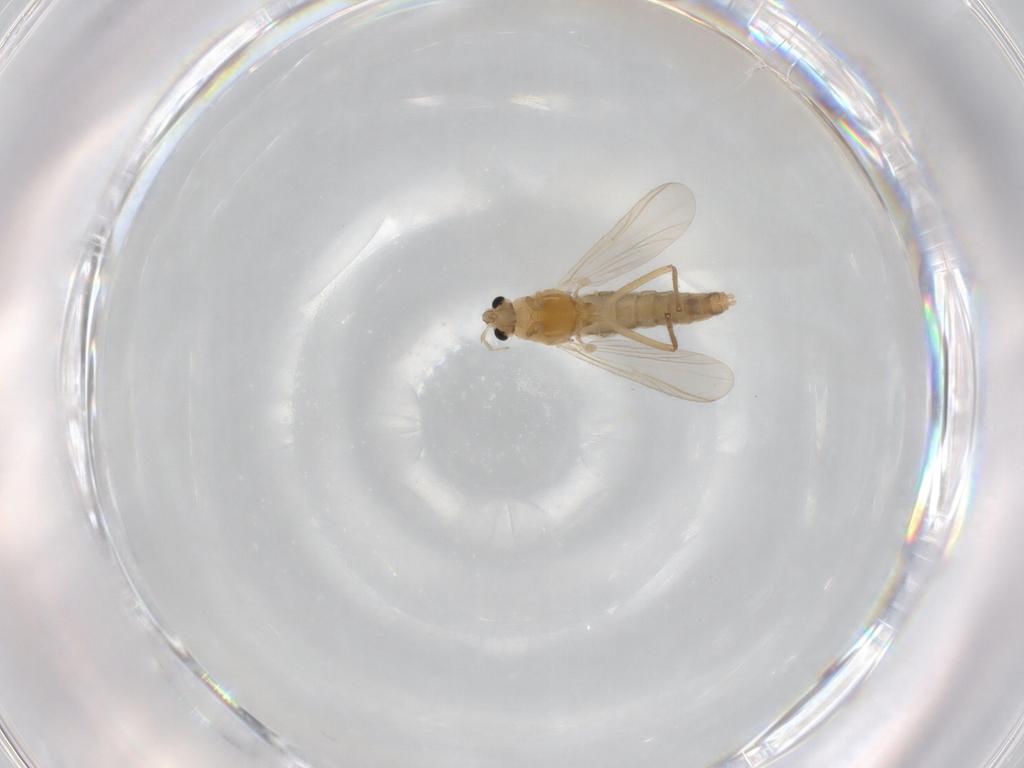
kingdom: Animalia
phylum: Arthropoda
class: Insecta
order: Diptera
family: Chironomidae
